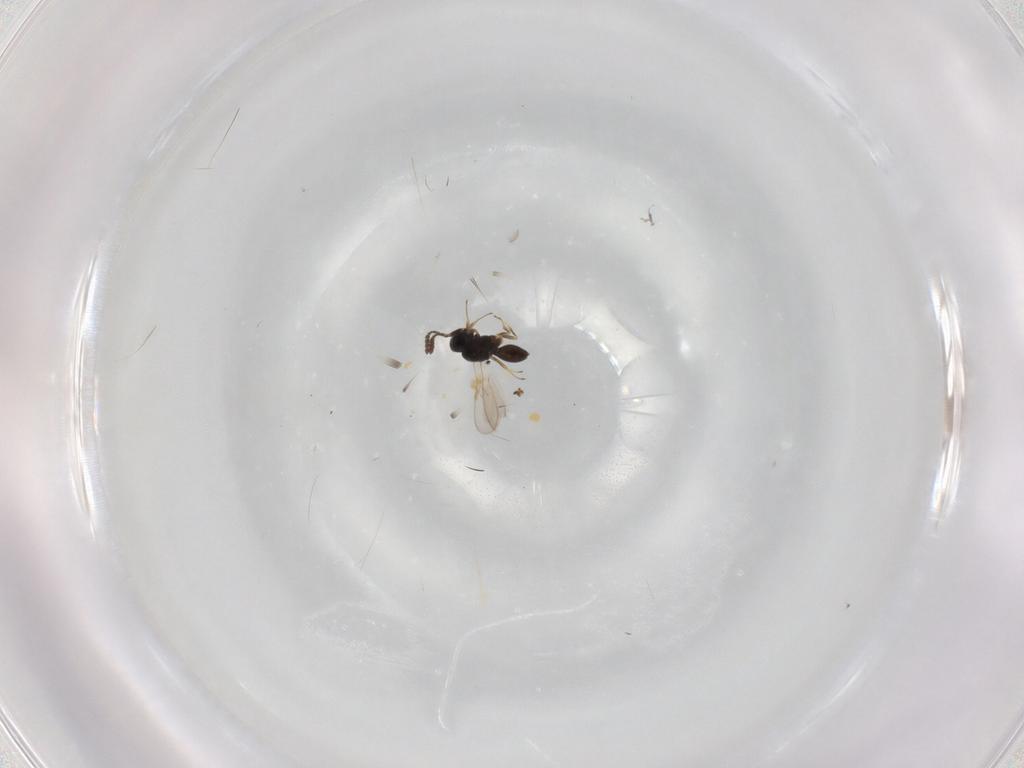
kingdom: Animalia
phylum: Arthropoda
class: Insecta
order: Hymenoptera
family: Scelionidae
